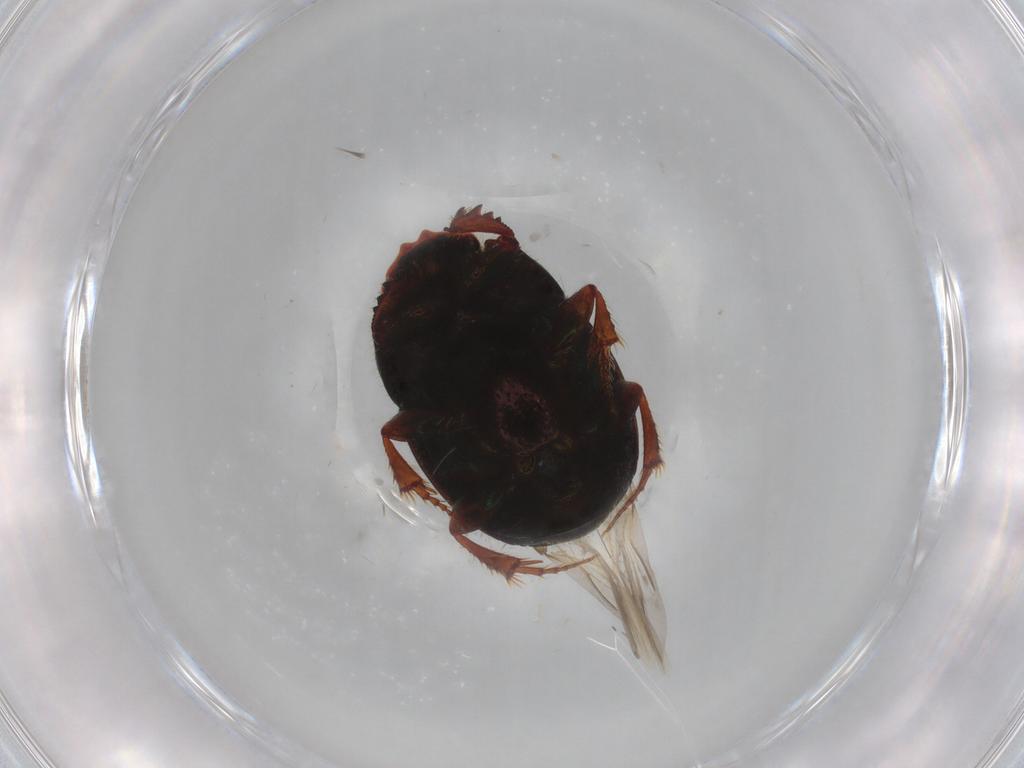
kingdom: Animalia
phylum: Arthropoda
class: Insecta
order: Coleoptera
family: Scarabaeidae
